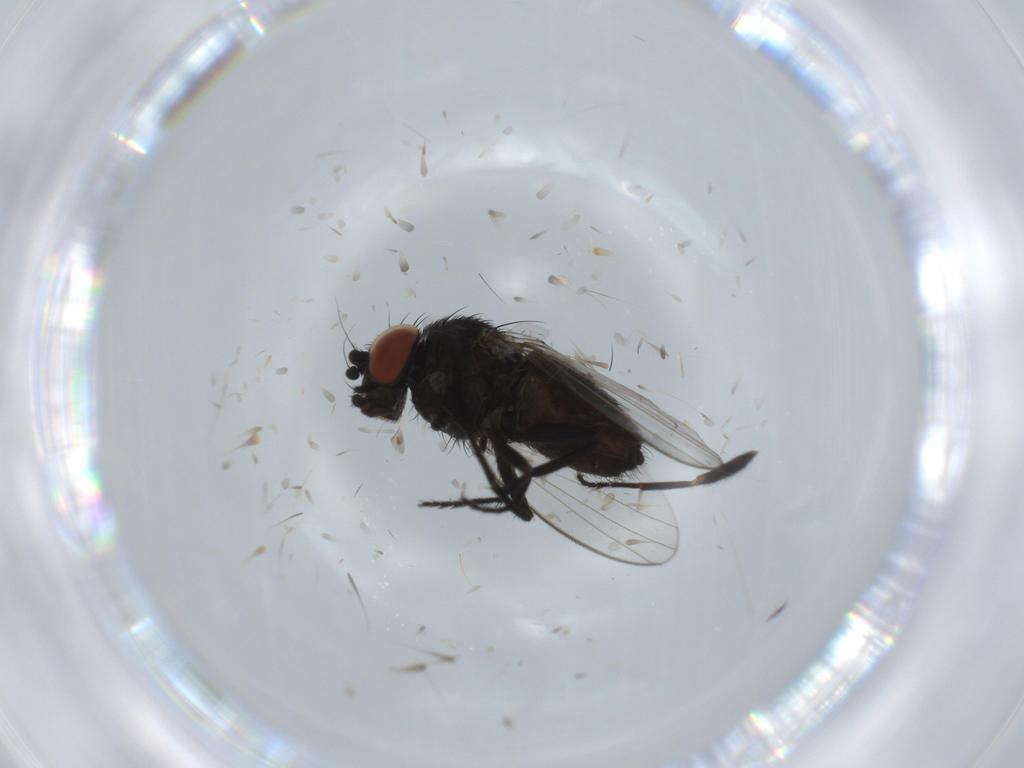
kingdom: Animalia
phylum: Arthropoda
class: Insecta
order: Diptera
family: Milichiidae
